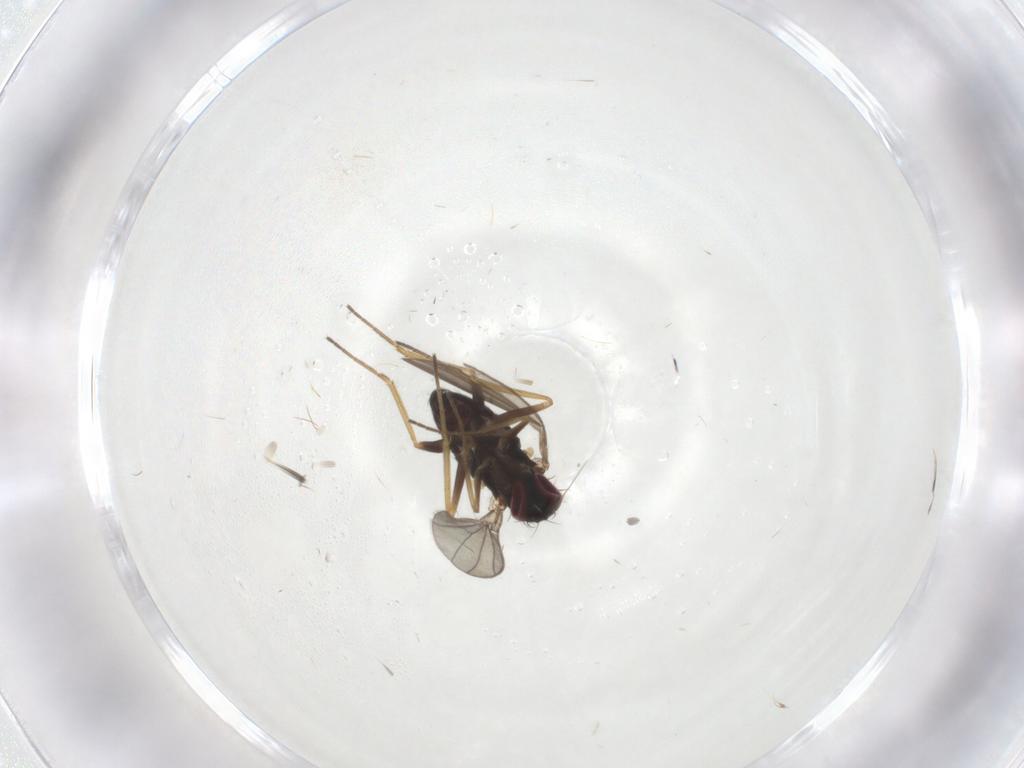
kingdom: Animalia
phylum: Arthropoda
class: Insecta
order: Diptera
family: Dolichopodidae
